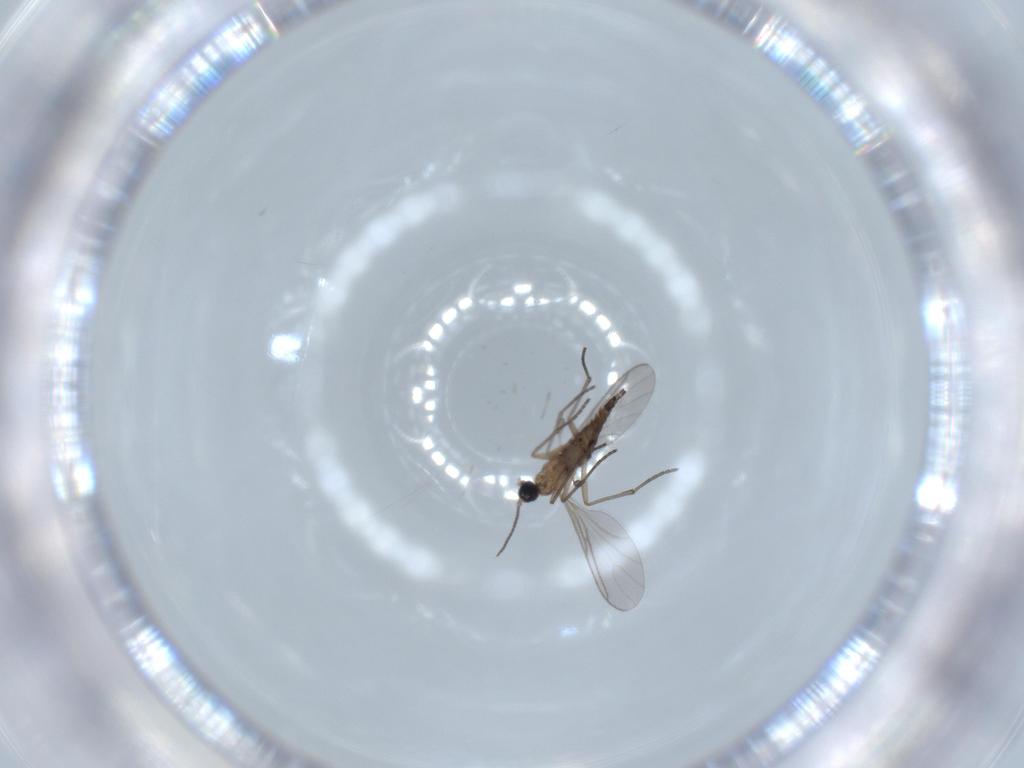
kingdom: Animalia
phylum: Arthropoda
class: Insecta
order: Diptera
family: Sciaridae
